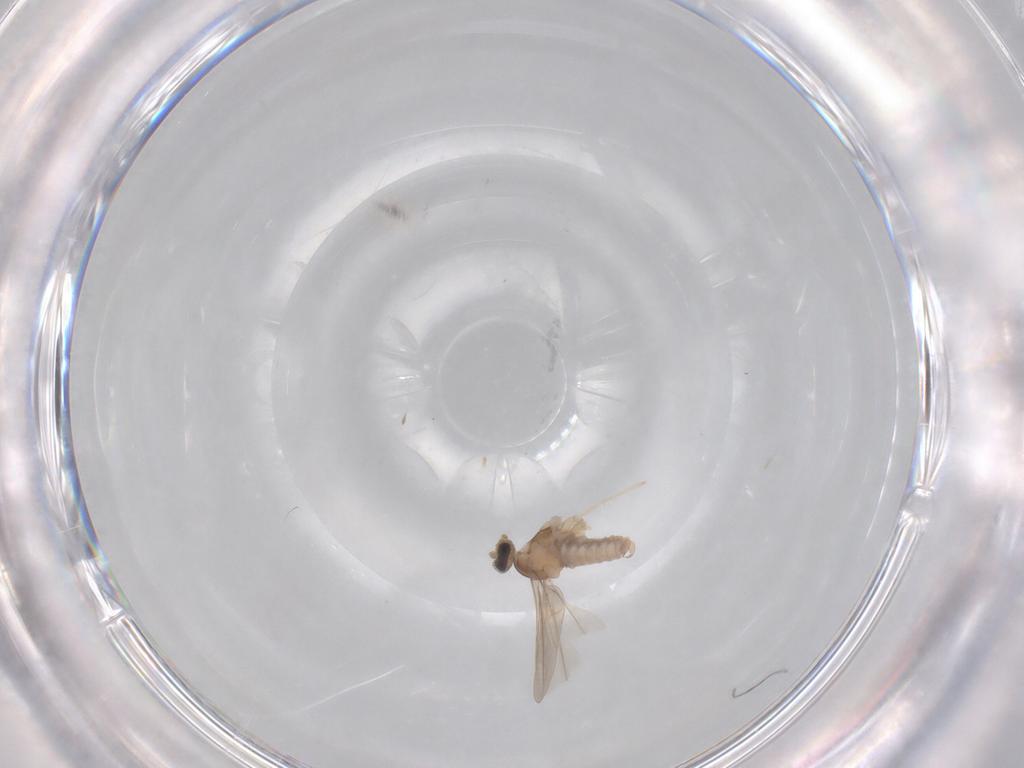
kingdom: Animalia
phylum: Arthropoda
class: Insecta
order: Diptera
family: Cecidomyiidae
